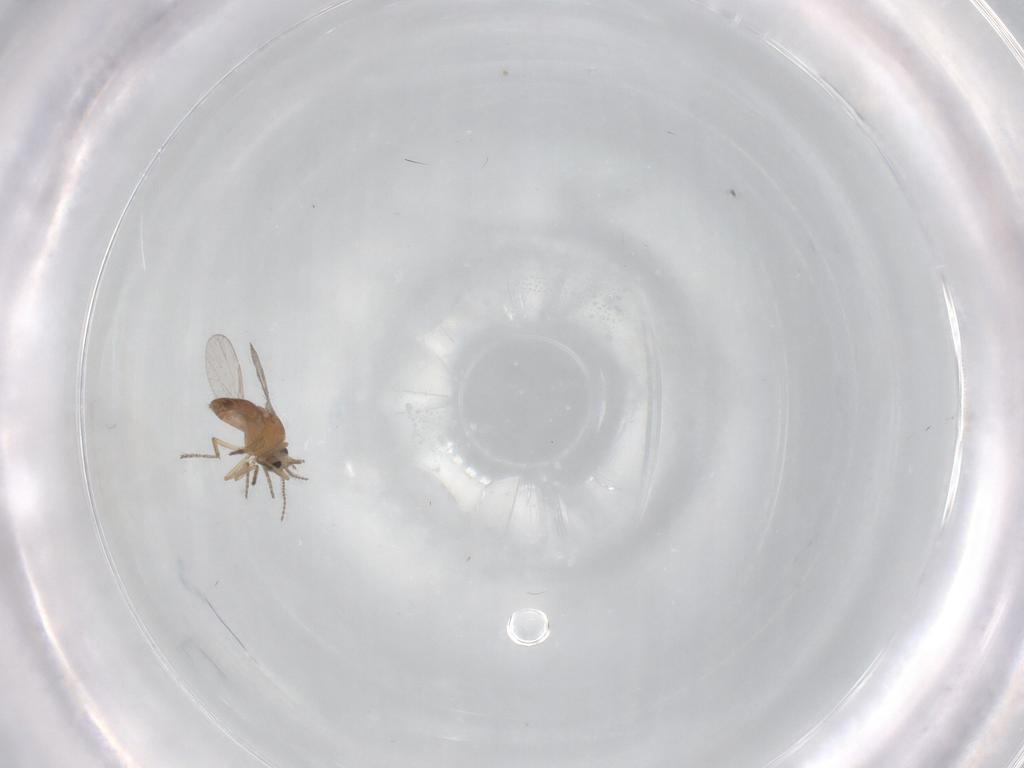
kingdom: Animalia
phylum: Arthropoda
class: Insecta
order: Diptera
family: Ceratopogonidae
